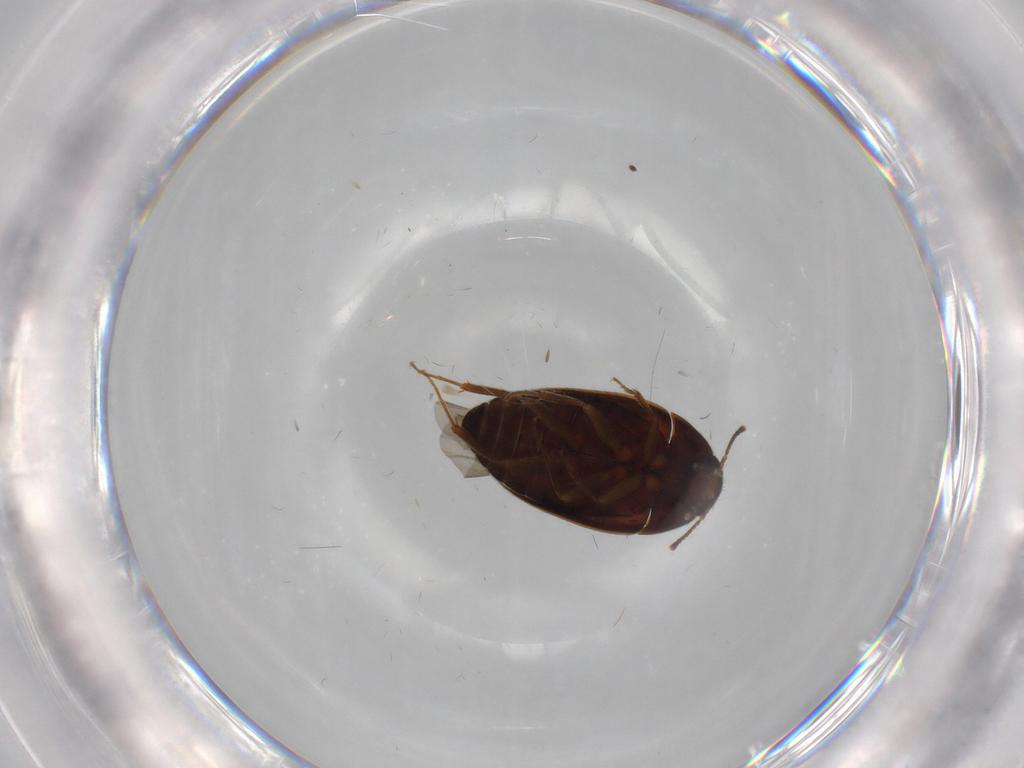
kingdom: Animalia
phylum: Arthropoda
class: Insecta
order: Coleoptera
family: Mycetophagidae
